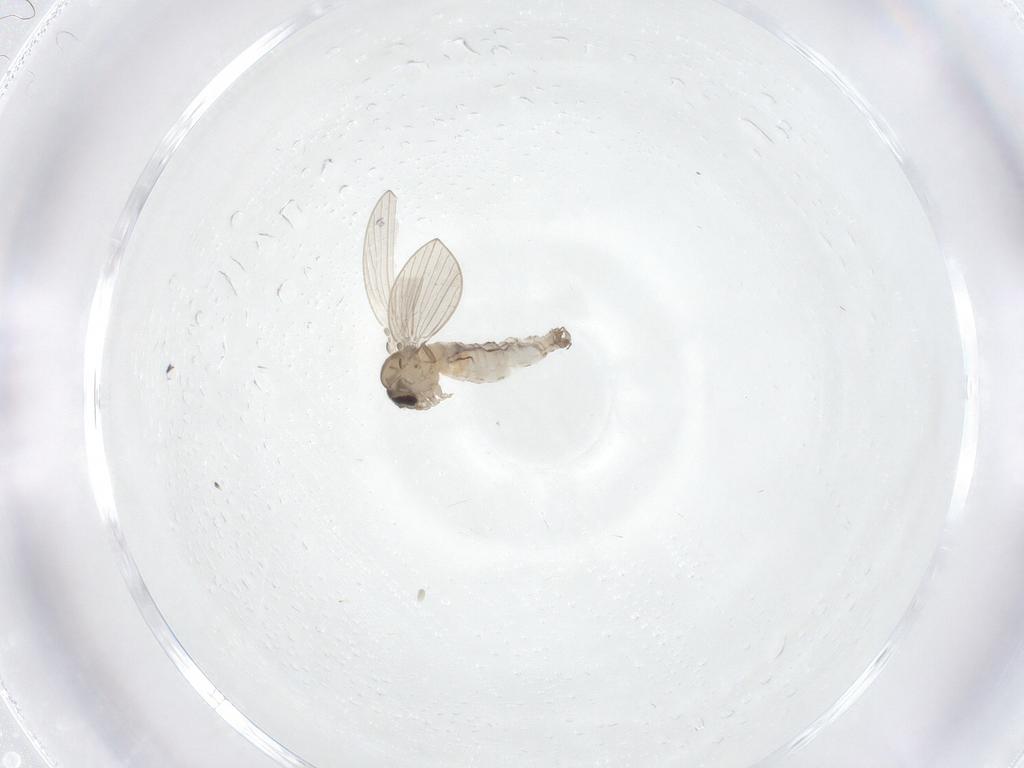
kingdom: Animalia
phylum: Arthropoda
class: Insecta
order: Diptera
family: Psychodidae
